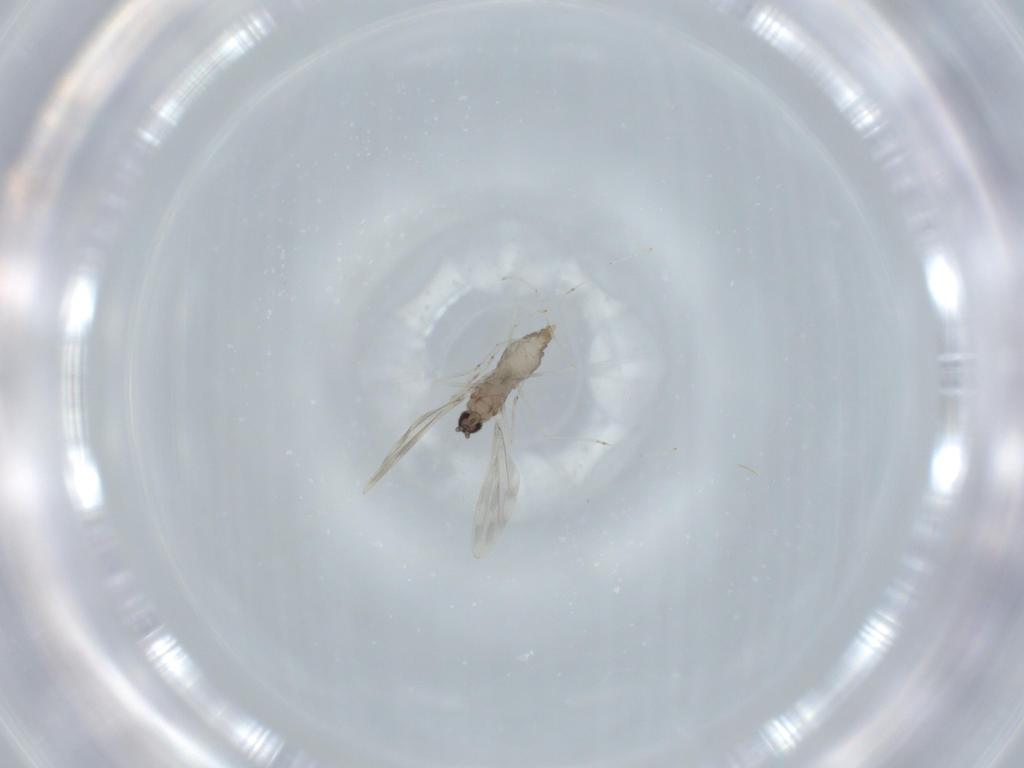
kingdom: Animalia
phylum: Arthropoda
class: Insecta
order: Diptera
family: Cecidomyiidae
